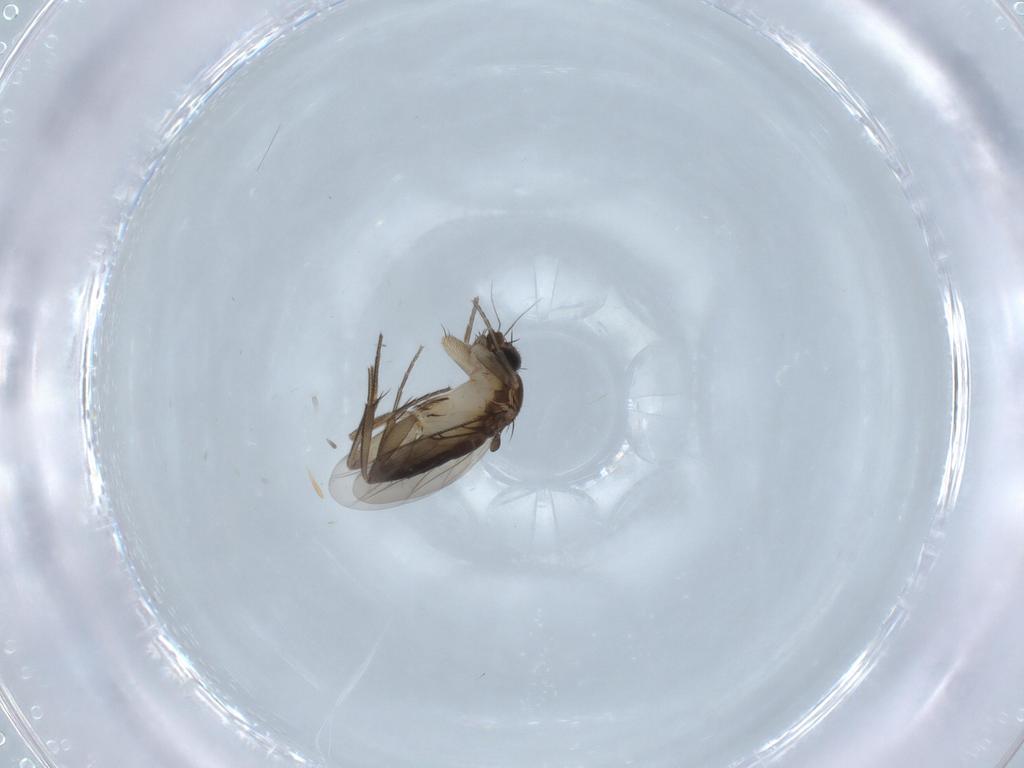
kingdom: Animalia
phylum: Arthropoda
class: Insecta
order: Diptera
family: Phoridae
